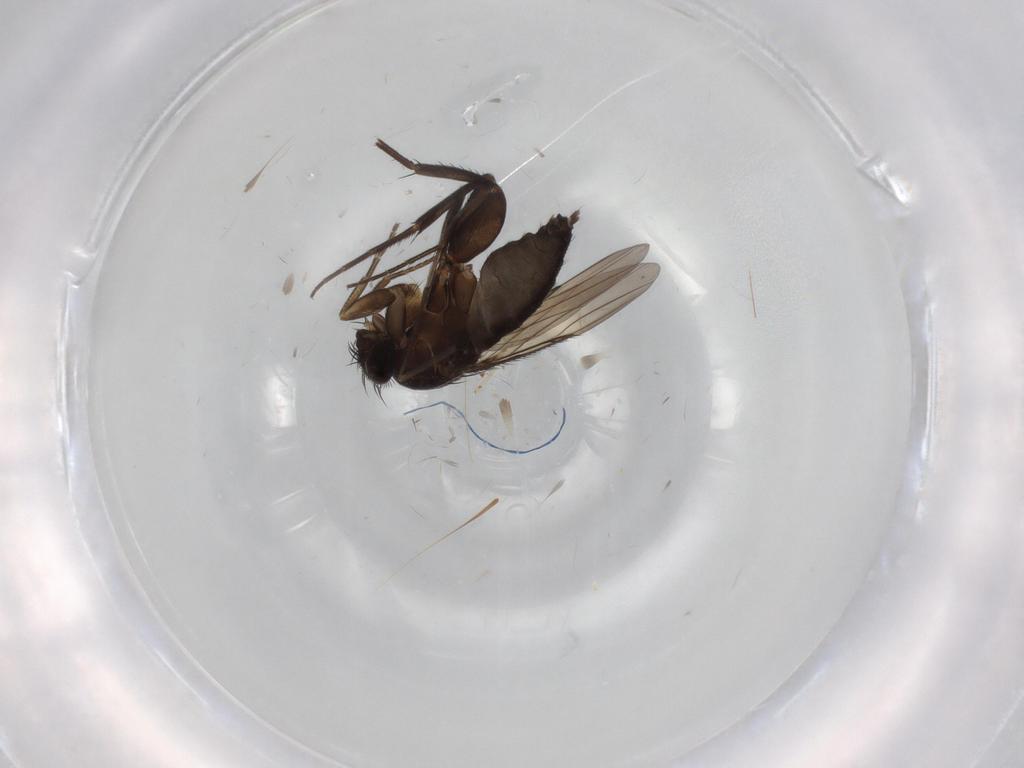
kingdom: Animalia
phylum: Arthropoda
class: Insecta
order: Diptera
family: Phoridae
